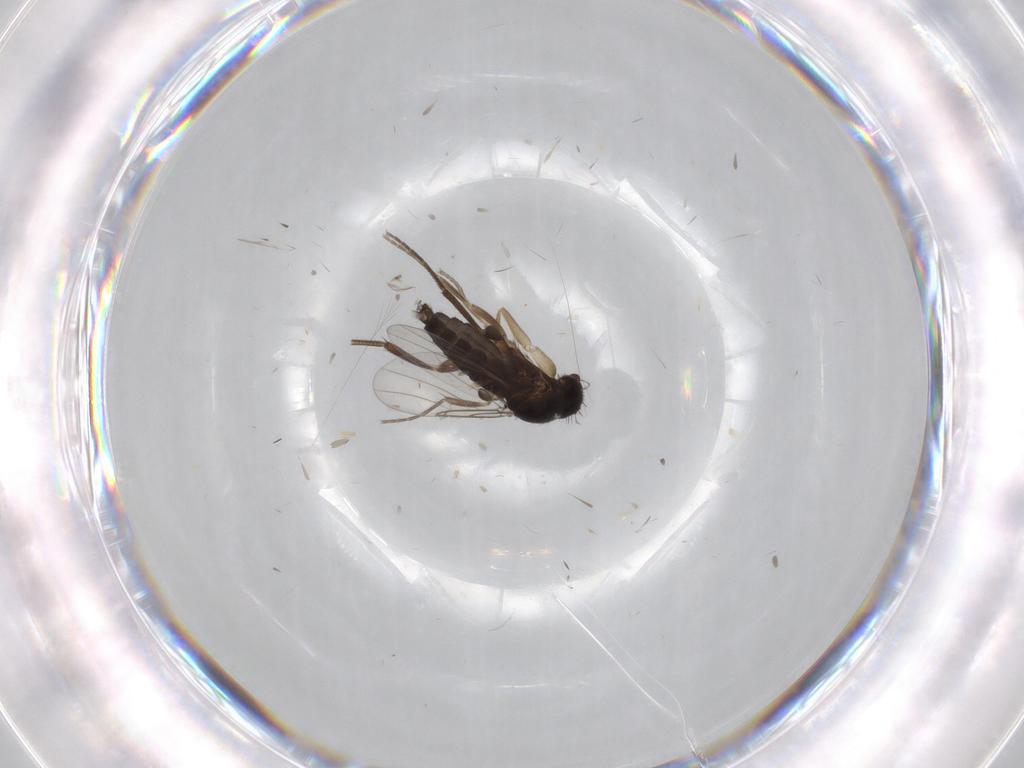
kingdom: Animalia
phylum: Arthropoda
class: Insecta
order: Diptera
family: Phoridae
